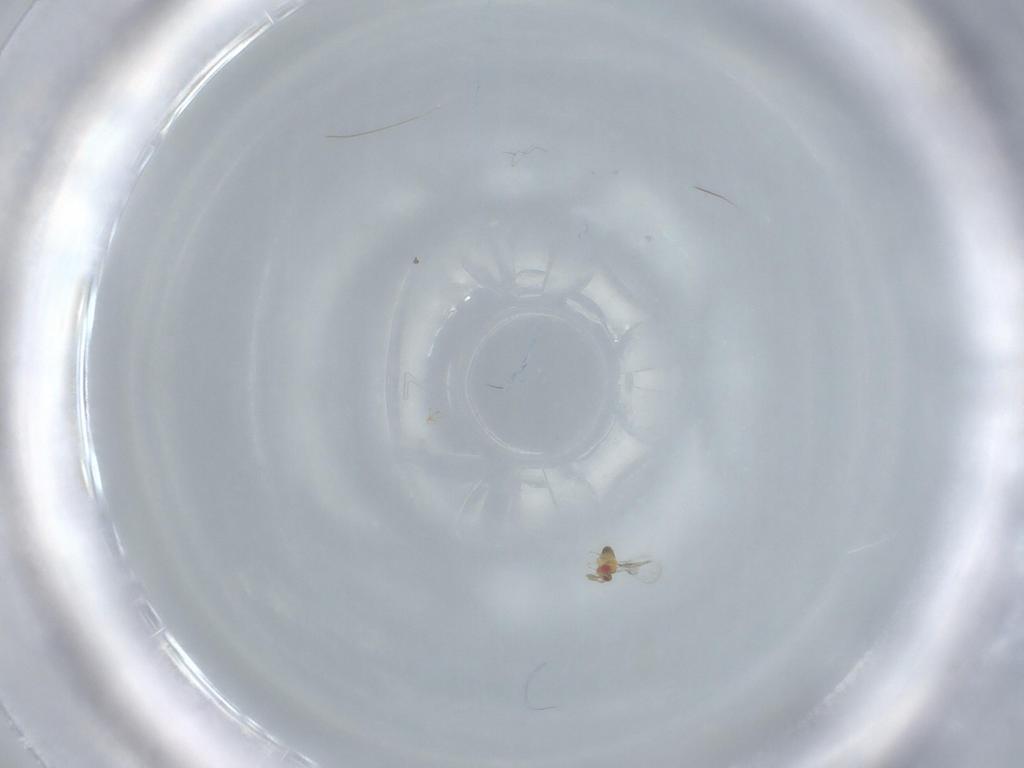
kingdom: Animalia
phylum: Arthropoda
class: Insecta
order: Hymenoptera
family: Trichogrammatidae
